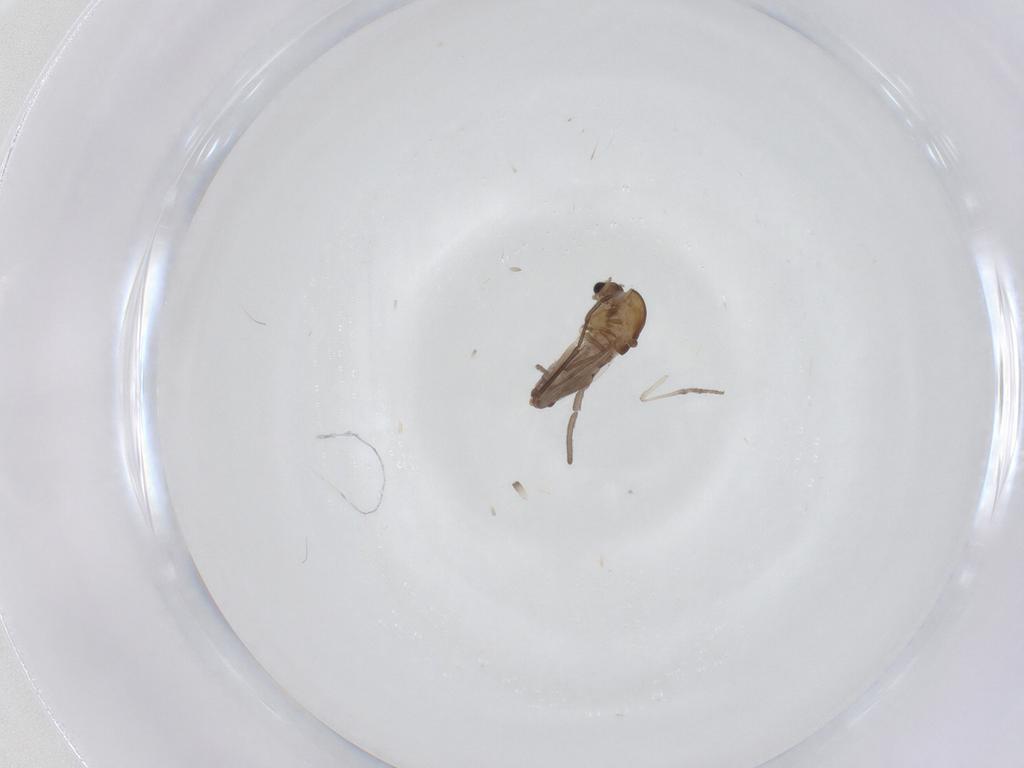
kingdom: Animalia
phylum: Arthropoda
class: Insecta
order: Diptera
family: Chironomidae
